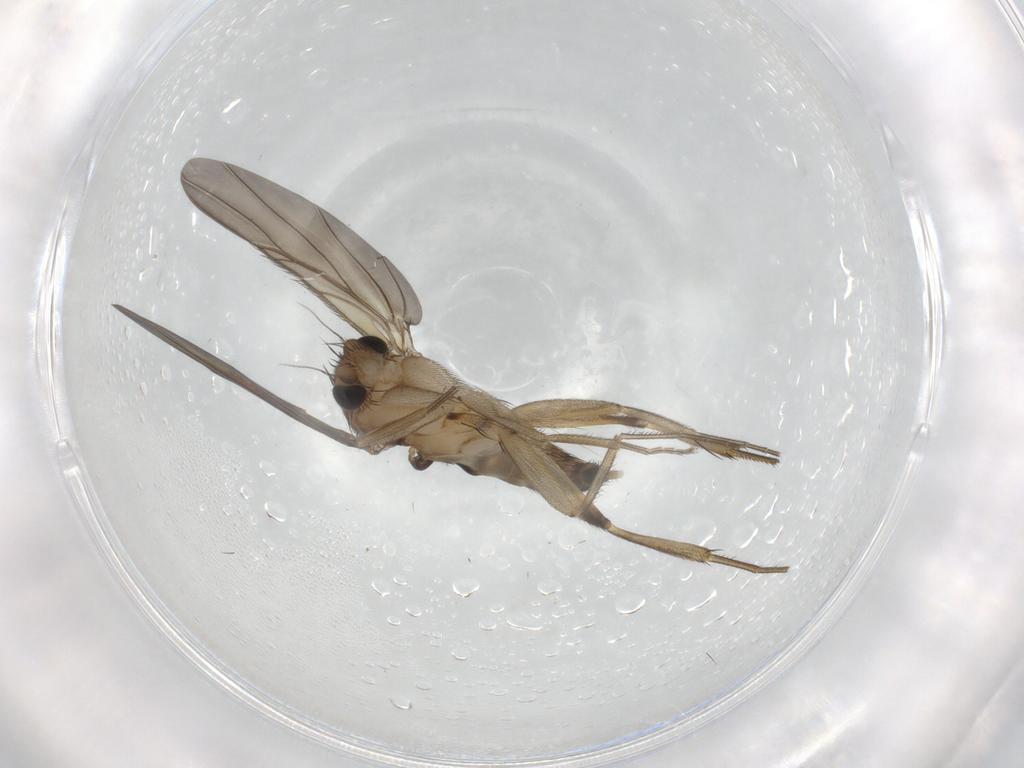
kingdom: Animalia
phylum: Arthropoda
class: Insecta
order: Diptera
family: Phoridae
